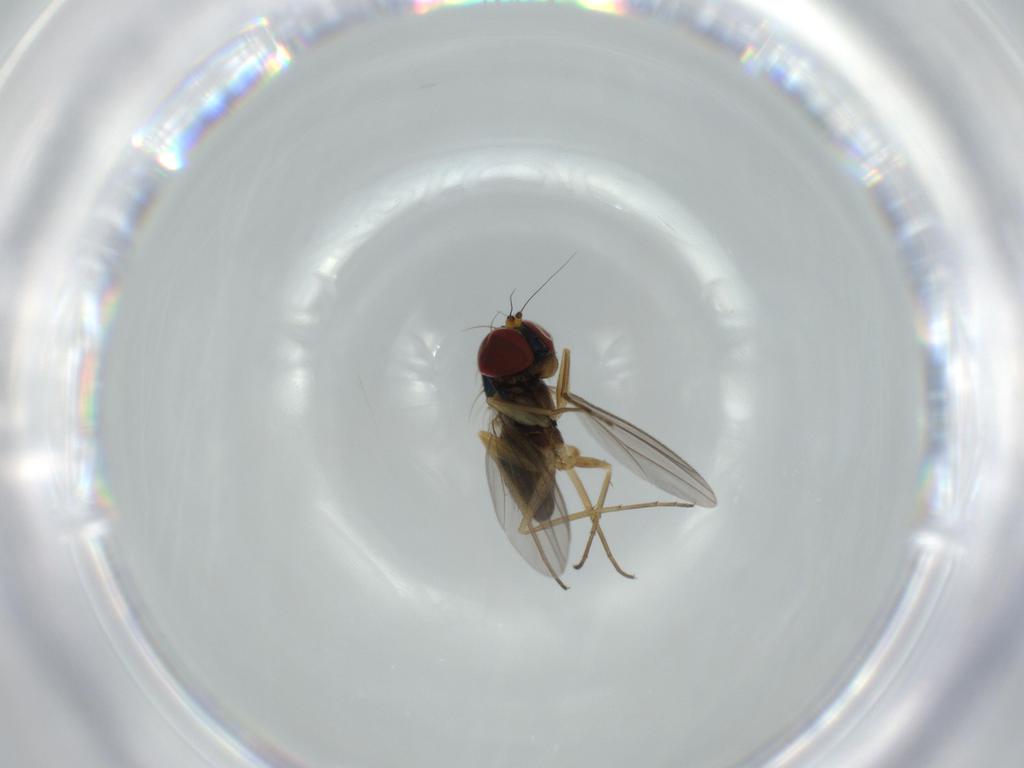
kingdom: Animalia
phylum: Arthropoda
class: Insecta
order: Diptera
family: Dolichopodidae
